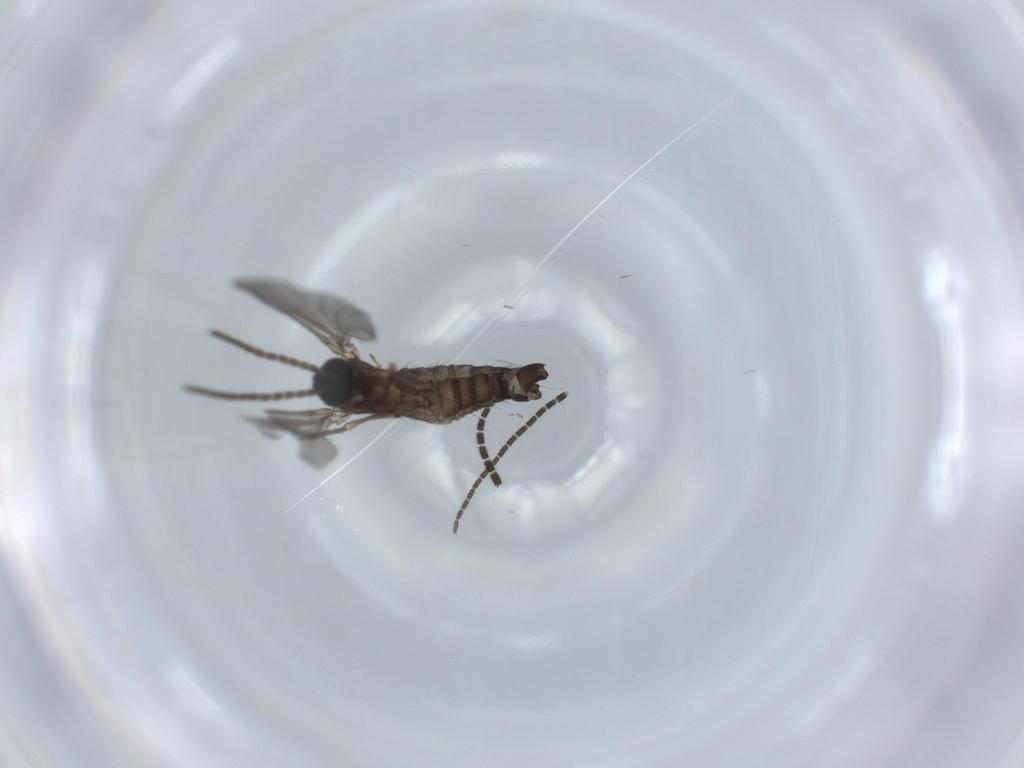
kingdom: Animalia
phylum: Arthropoda
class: Insecta
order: Diptera
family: Sciaridae
